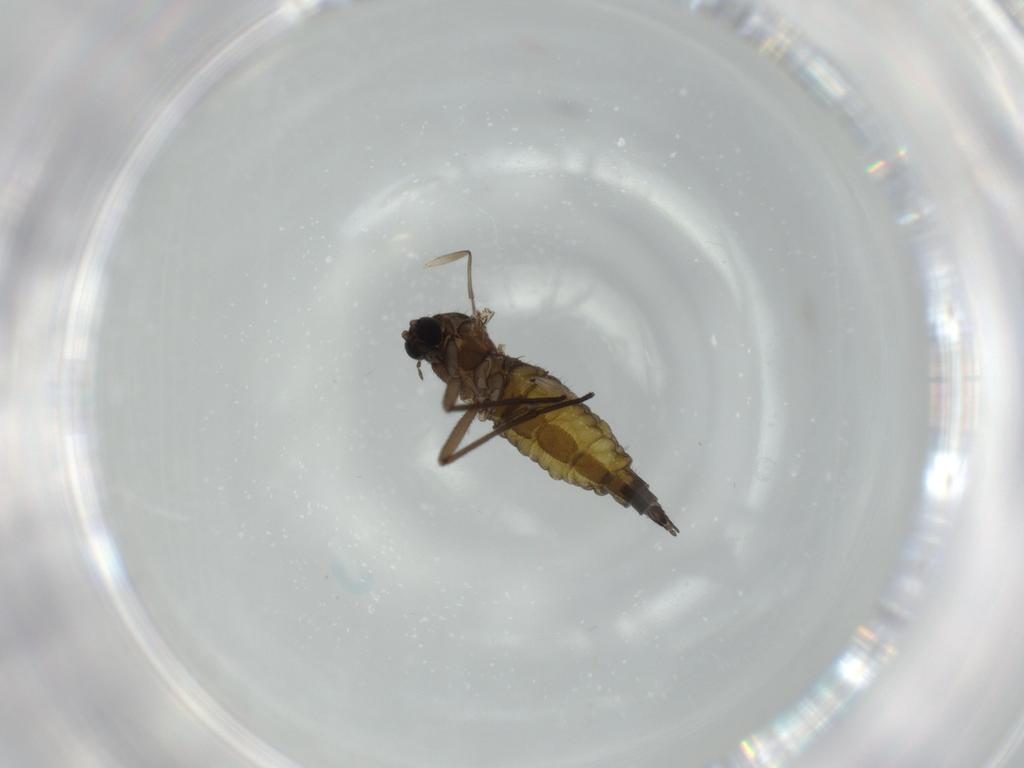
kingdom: Animalia
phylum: Arthropoda
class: Insecta
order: Diptera
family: Sciaridae
